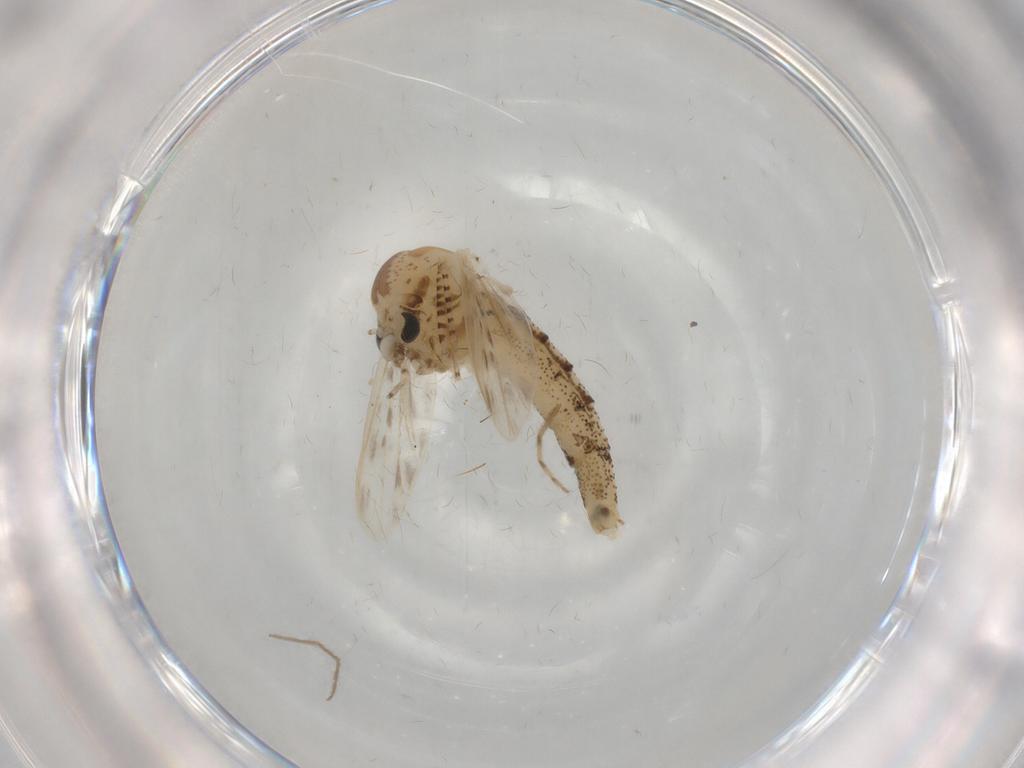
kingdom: Animalia
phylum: Arthropoda
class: Insecta
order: Diptera
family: Chaoboridae
